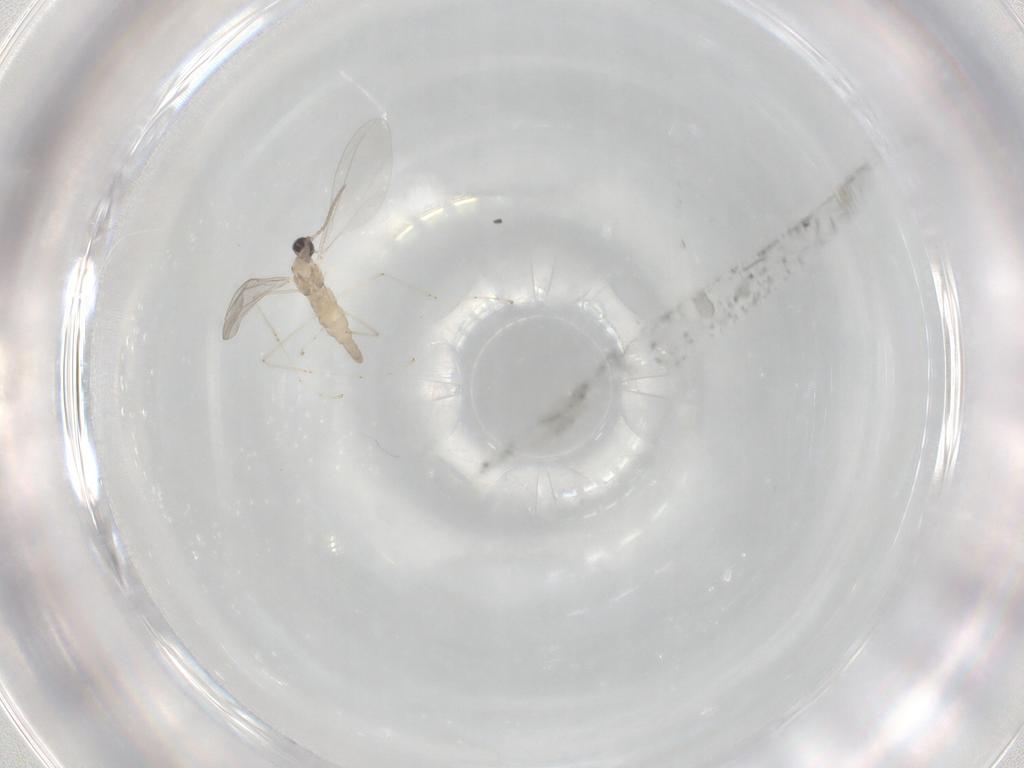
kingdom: Animalia
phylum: Arthropoda
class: Insecta
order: Diptera
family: Cecidomyiidae
